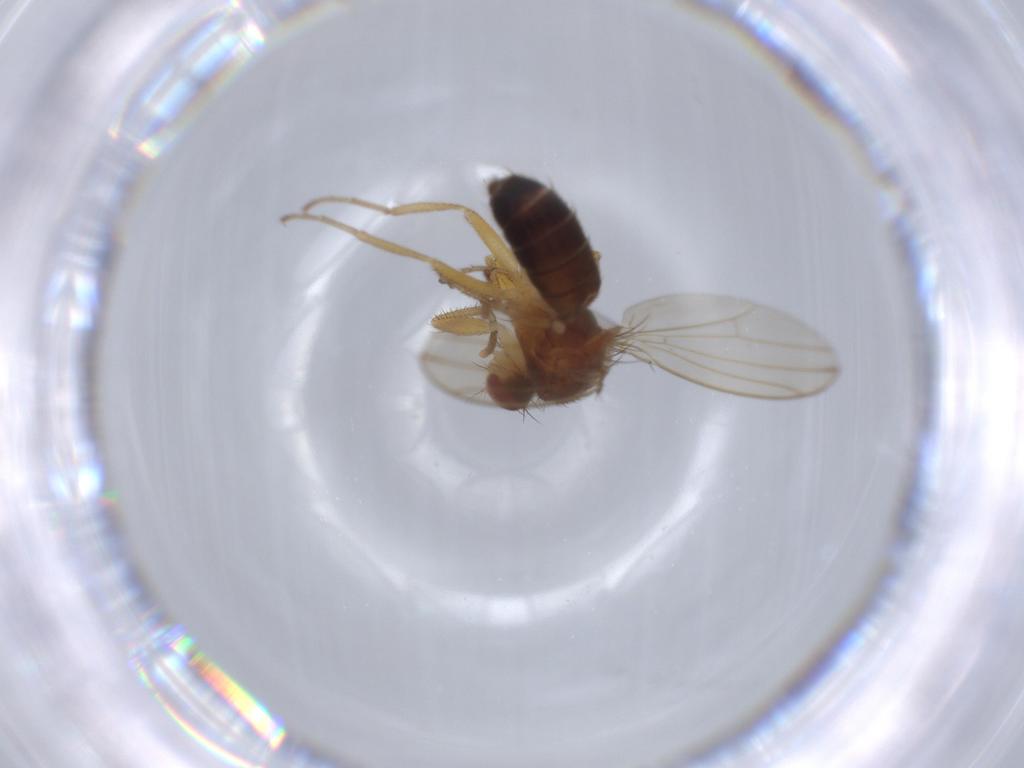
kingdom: Animalia
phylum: Arthropoda
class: Insecta
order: Diptera
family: Drosophilidae
